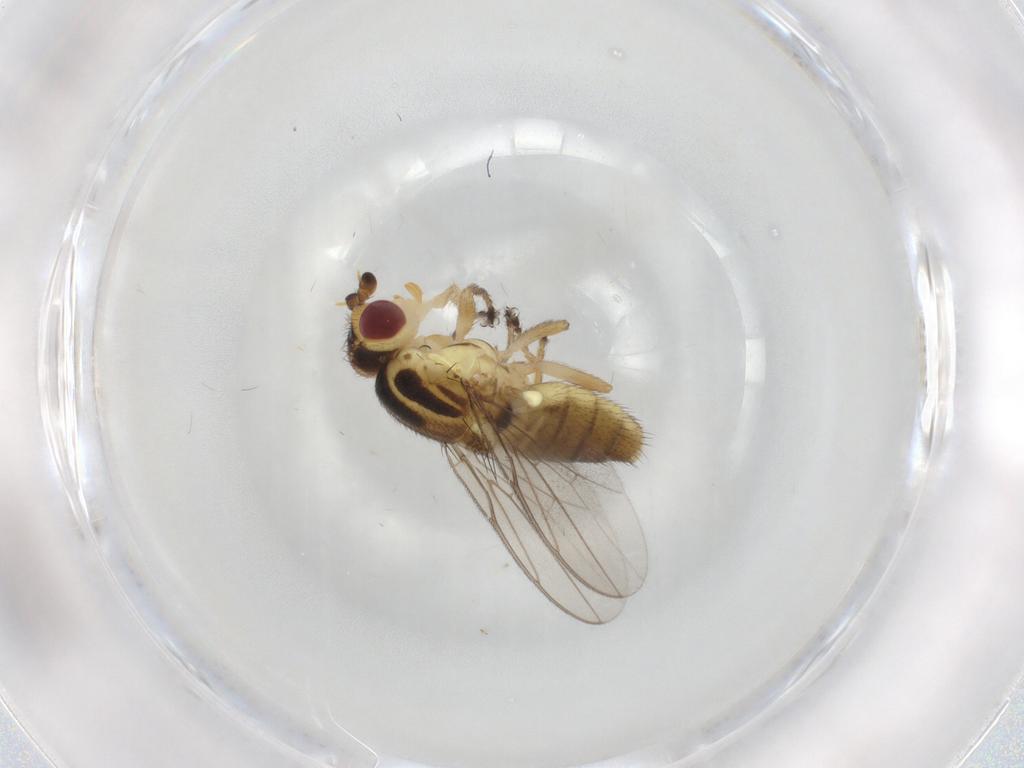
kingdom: Animalia
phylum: Arthropoda
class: Insecta
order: Diptera
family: Chloropidae
